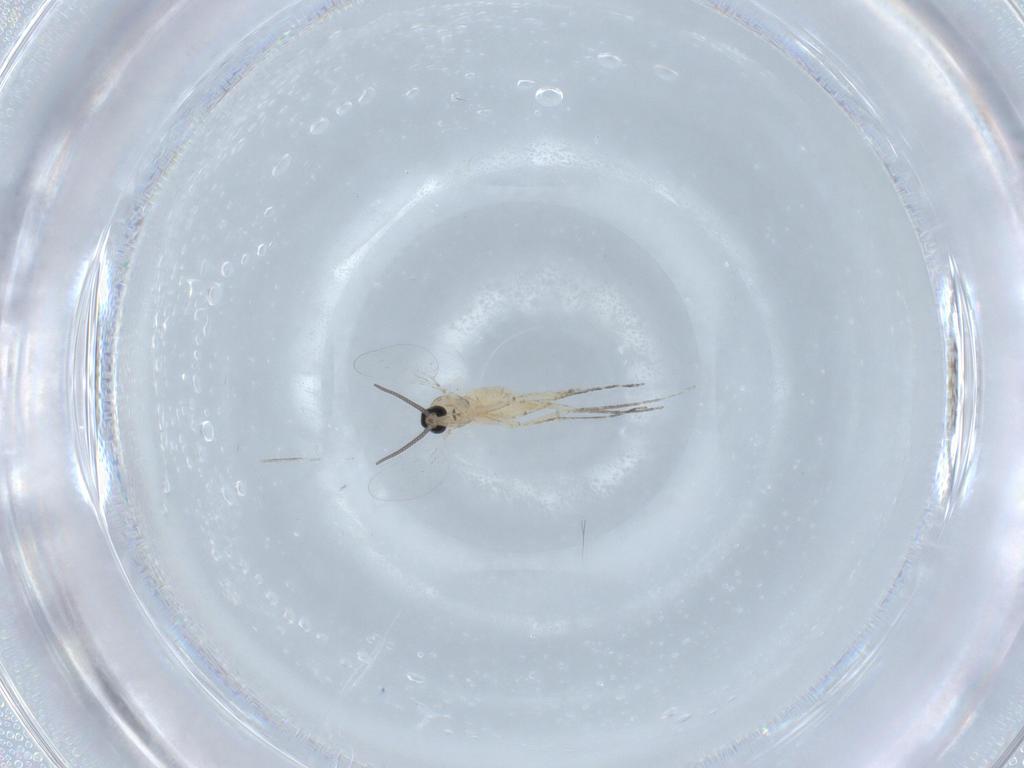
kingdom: Animalia
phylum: Arthropoda
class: Insecta
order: Diptera
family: Cecidomyiidae
